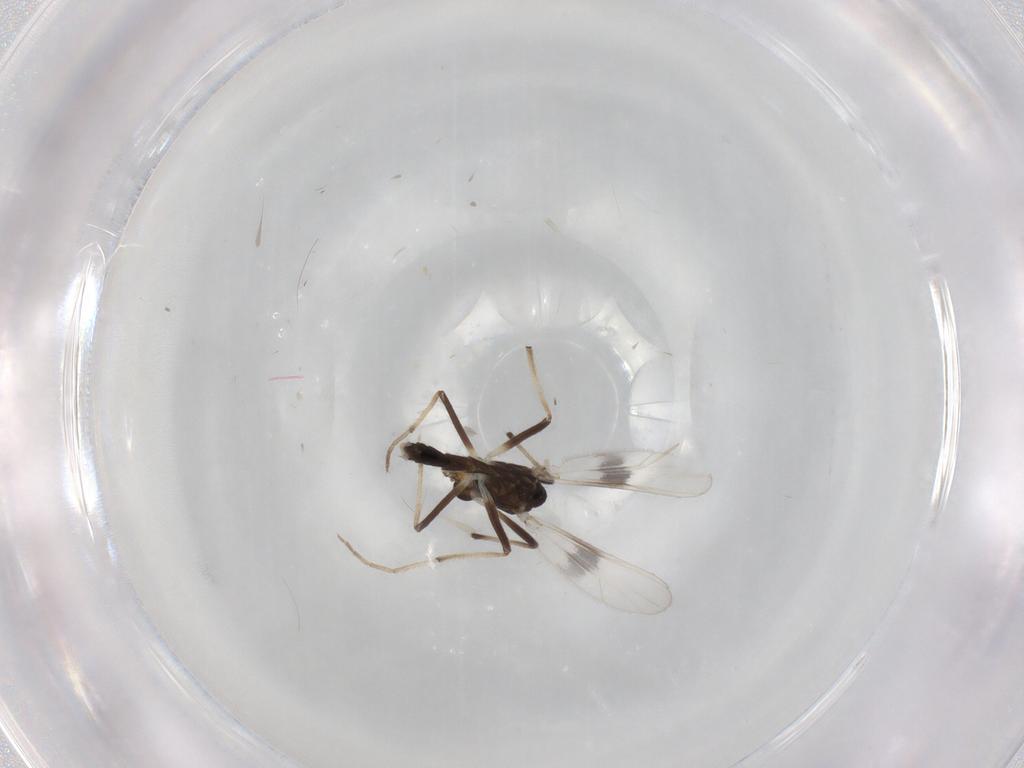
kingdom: Animalia
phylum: Arthropoda
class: Insecta
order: Diptera
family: Chironomidae
